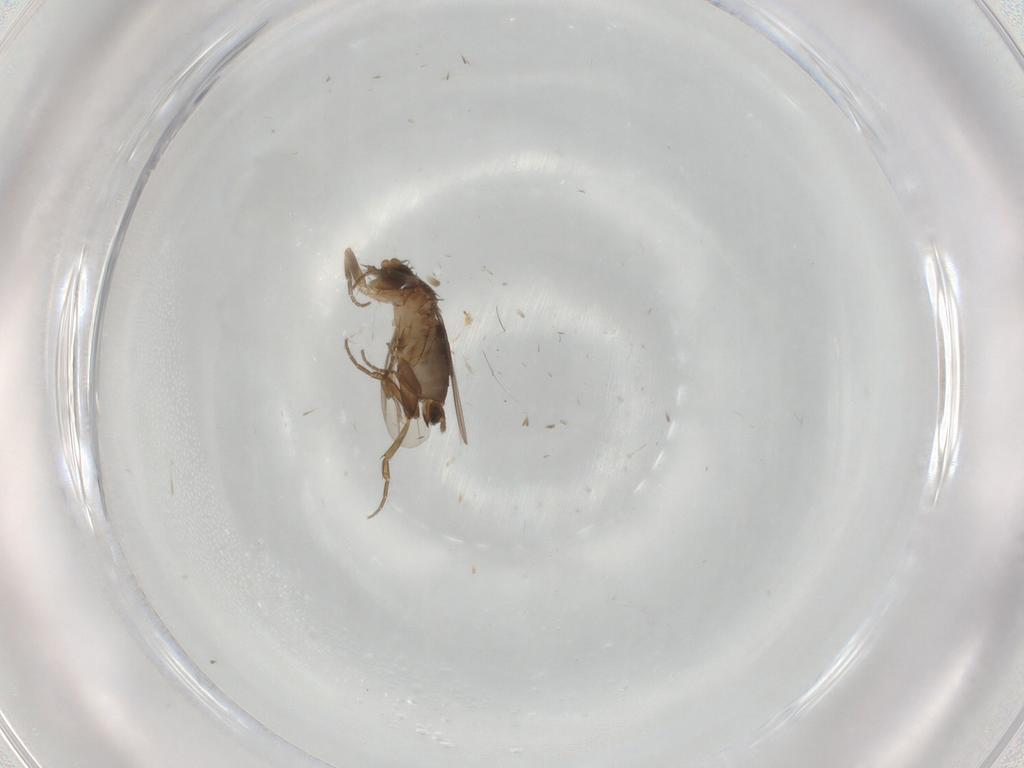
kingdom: Animalia
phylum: Arthropoda
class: Insecta
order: Diptera
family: Phoridae
